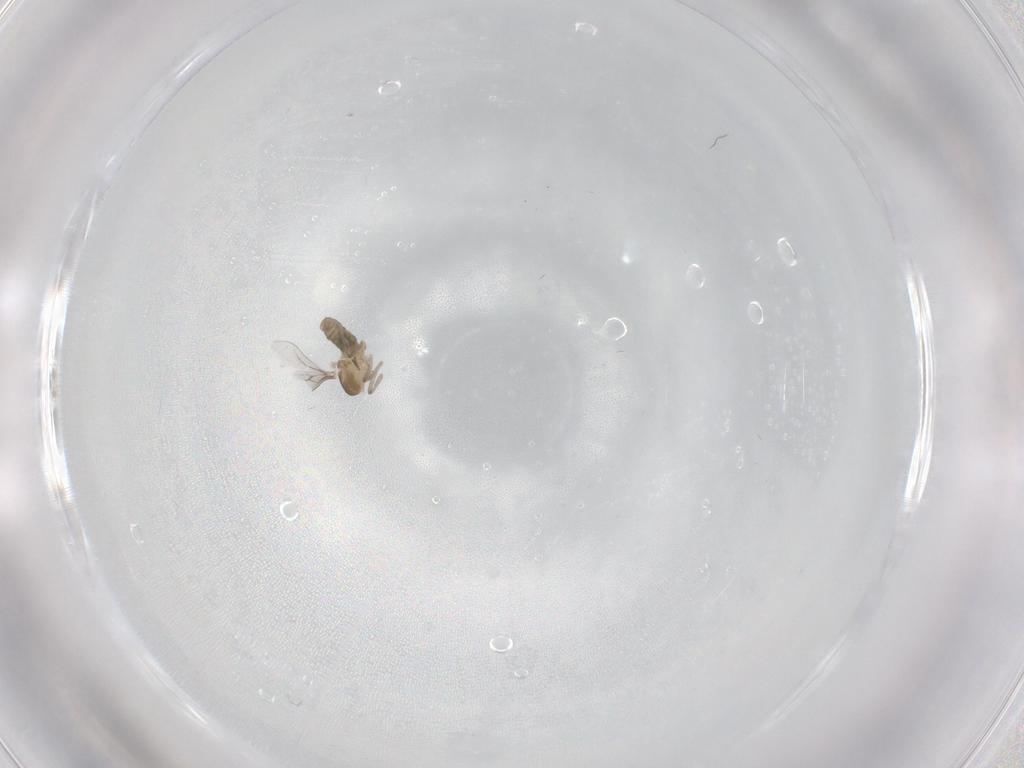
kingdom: Animalia
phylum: Arthropoda
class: Insecta
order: Diptera
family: Cecidomyiidae
